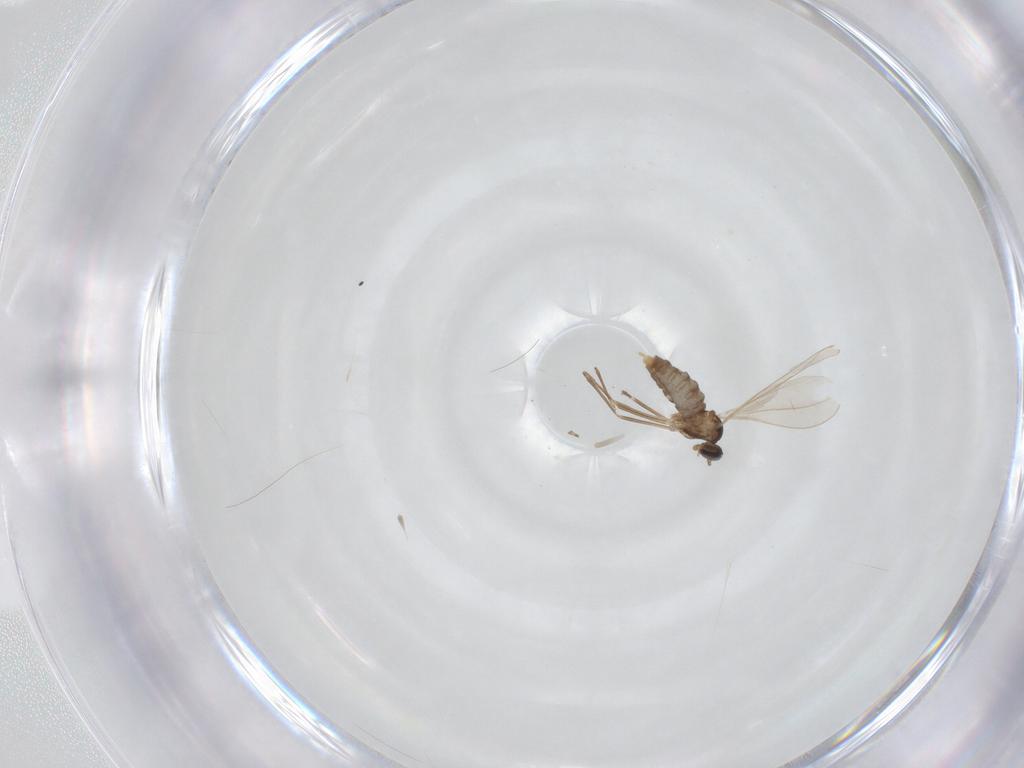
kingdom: Animalia
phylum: Arthropoda
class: Insecta
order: Diptera
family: Cecidomyiidae
